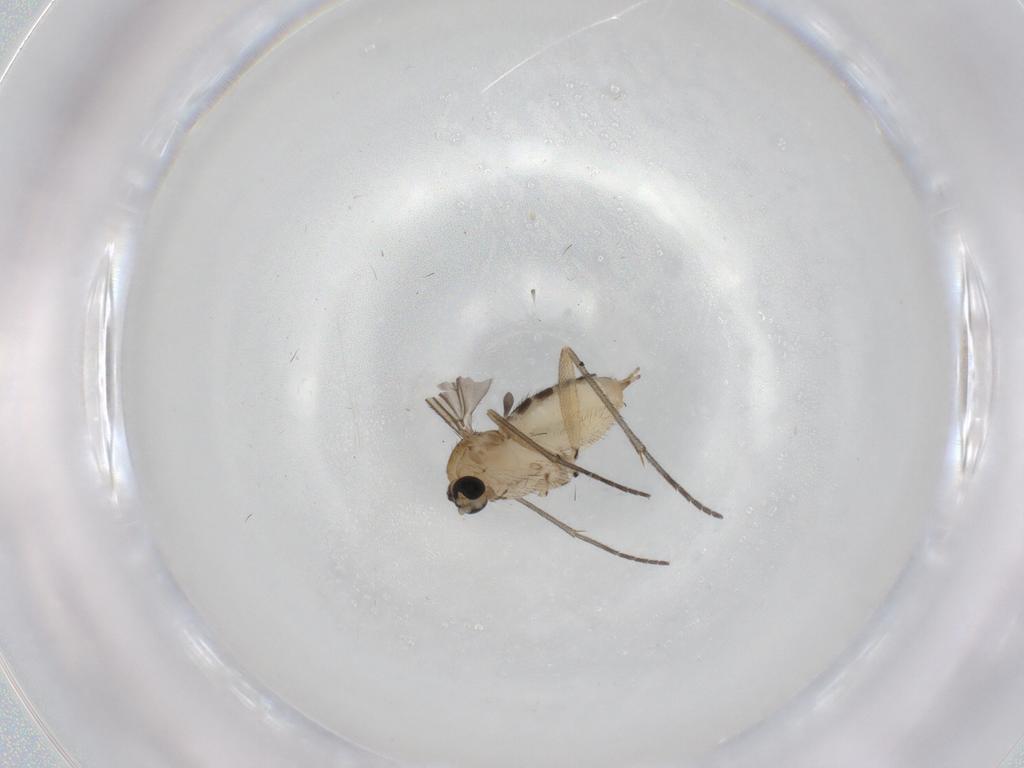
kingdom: Animalia
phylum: Arthropoda
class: Insecta
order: Diptera
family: Sciaridae
